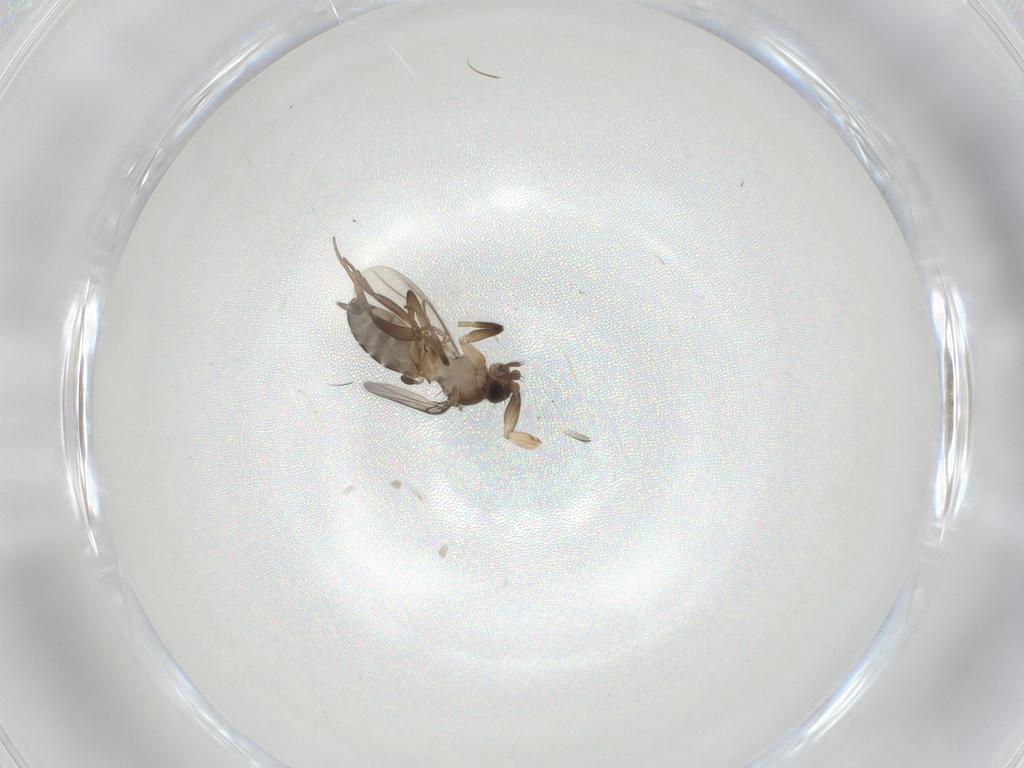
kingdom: Animalia
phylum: Arthropoda
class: Insecta
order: Diptera
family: Phoridae
